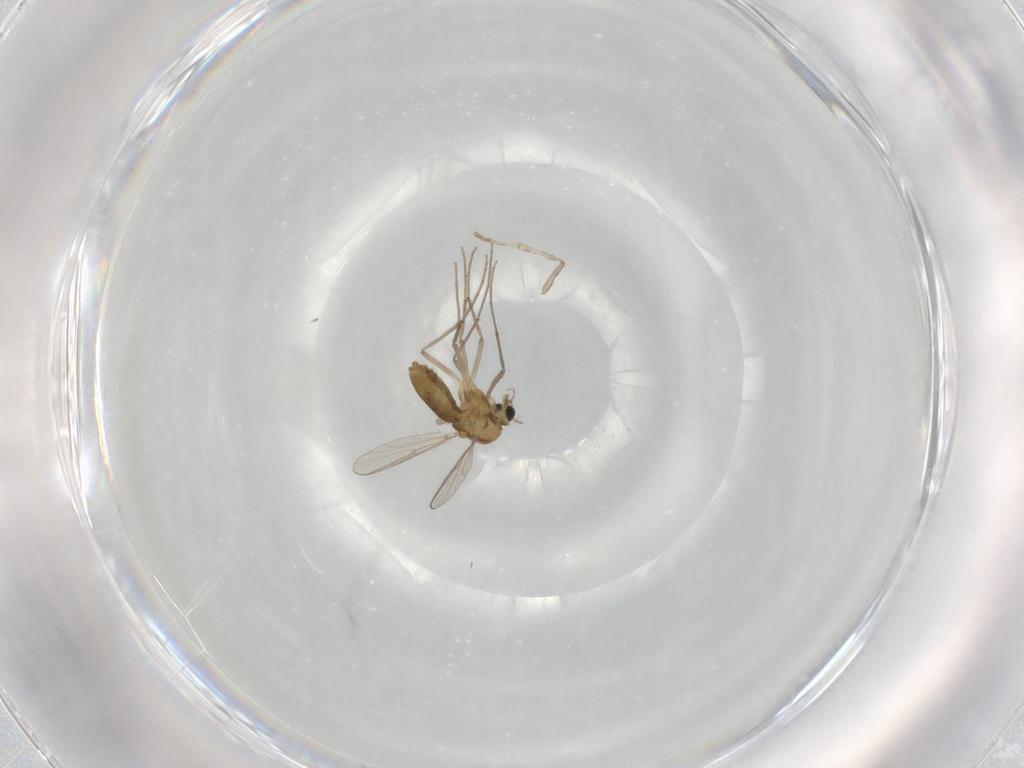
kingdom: Animalia
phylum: Arthropoda
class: Insecta
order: Diptera
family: Chironomidae
